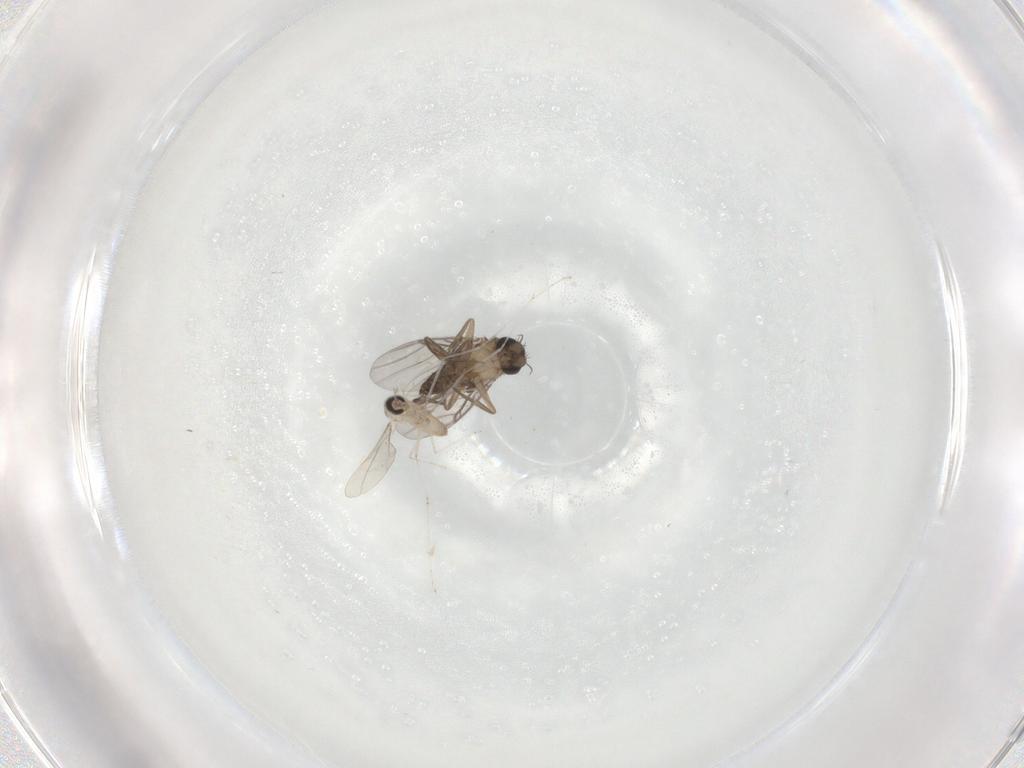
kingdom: Animalia
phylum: Arthropoda
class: Insecta
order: Diptera
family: Cecidomyiidae
